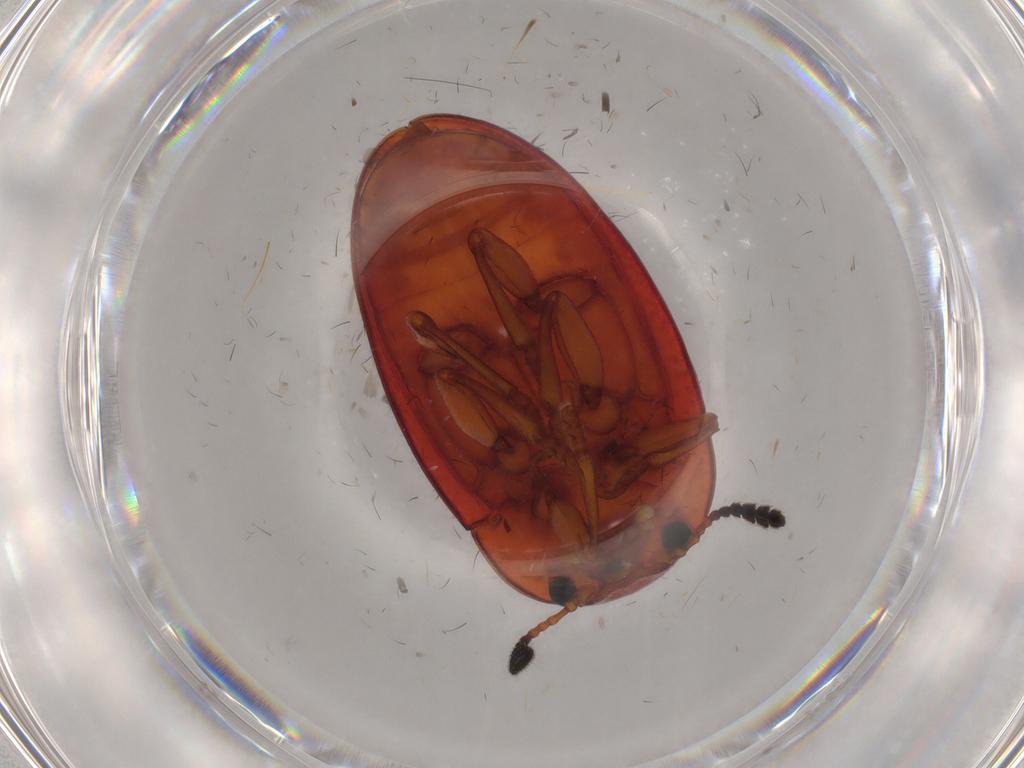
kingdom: Animalia
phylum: Arthropoda
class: Insecta
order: Coleoptera
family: Erotylidae
